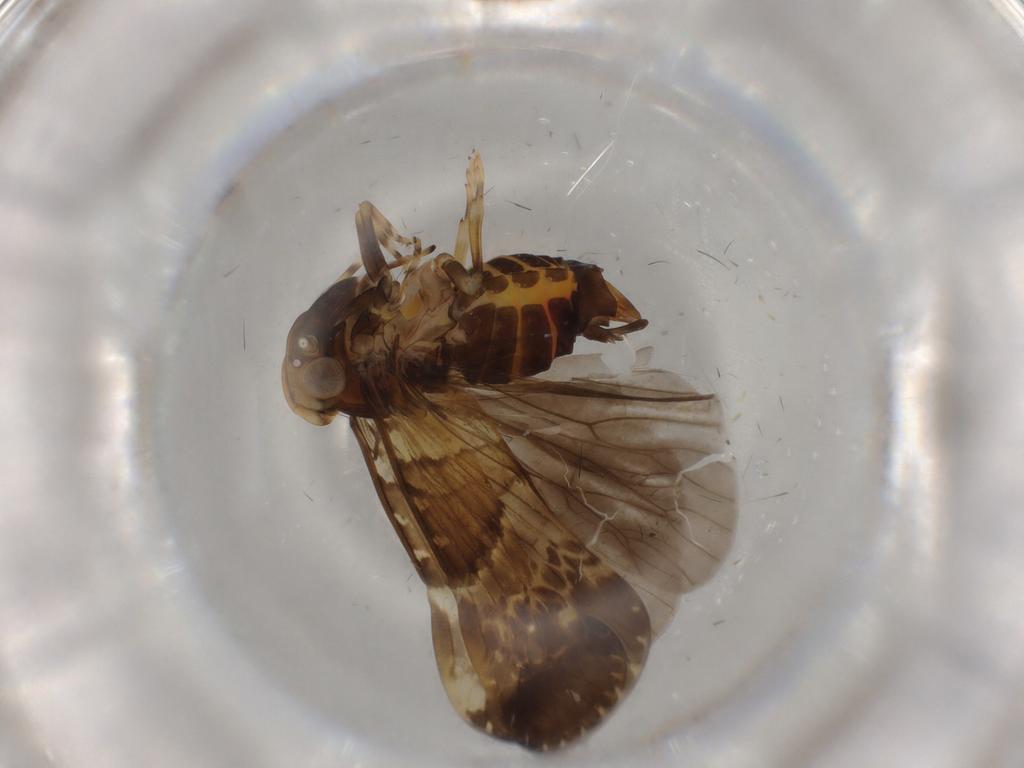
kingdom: Animalia
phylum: Arthropoda
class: Insecta
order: Hemiptera
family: Cixiidae
